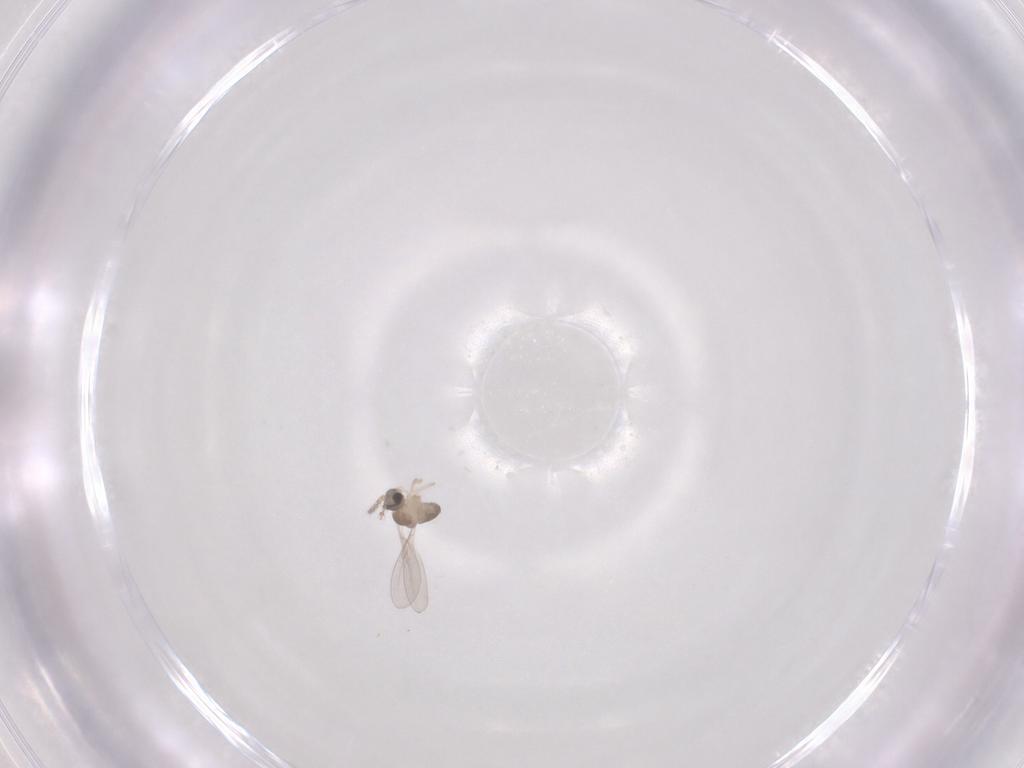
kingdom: Animalia
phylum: Arthropoda
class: Insecta
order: Diptera
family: Cecidomyiidae
